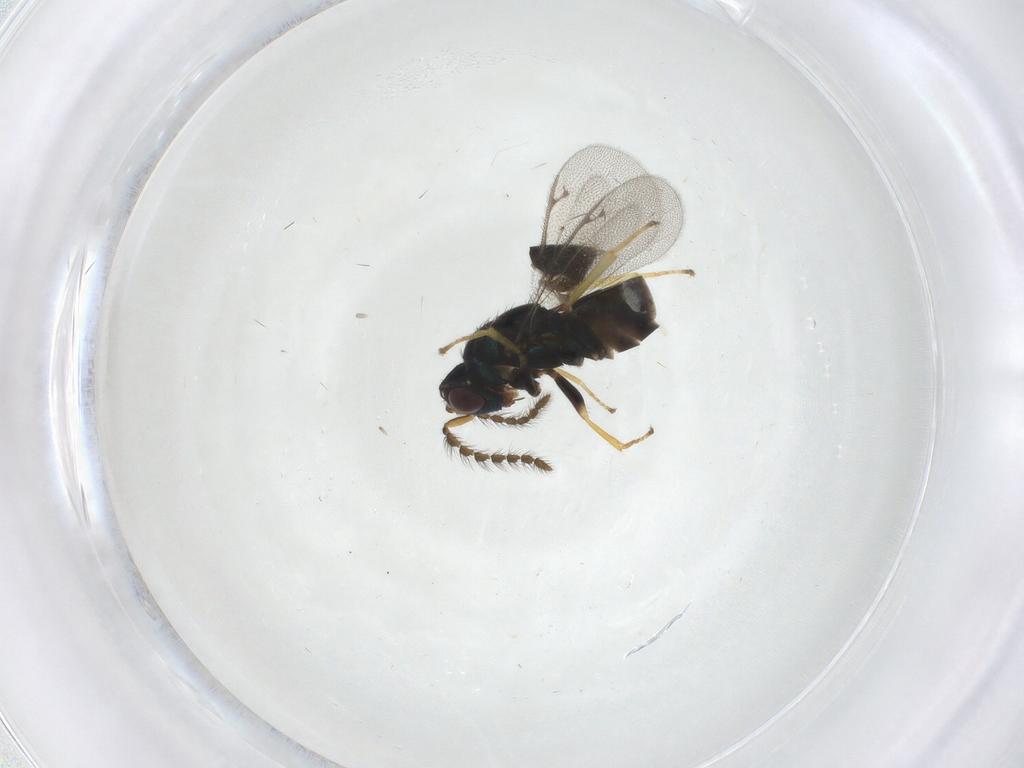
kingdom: Animalia
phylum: Arthropoda
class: Insecta
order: Hymenoptera
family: Pirenidae
